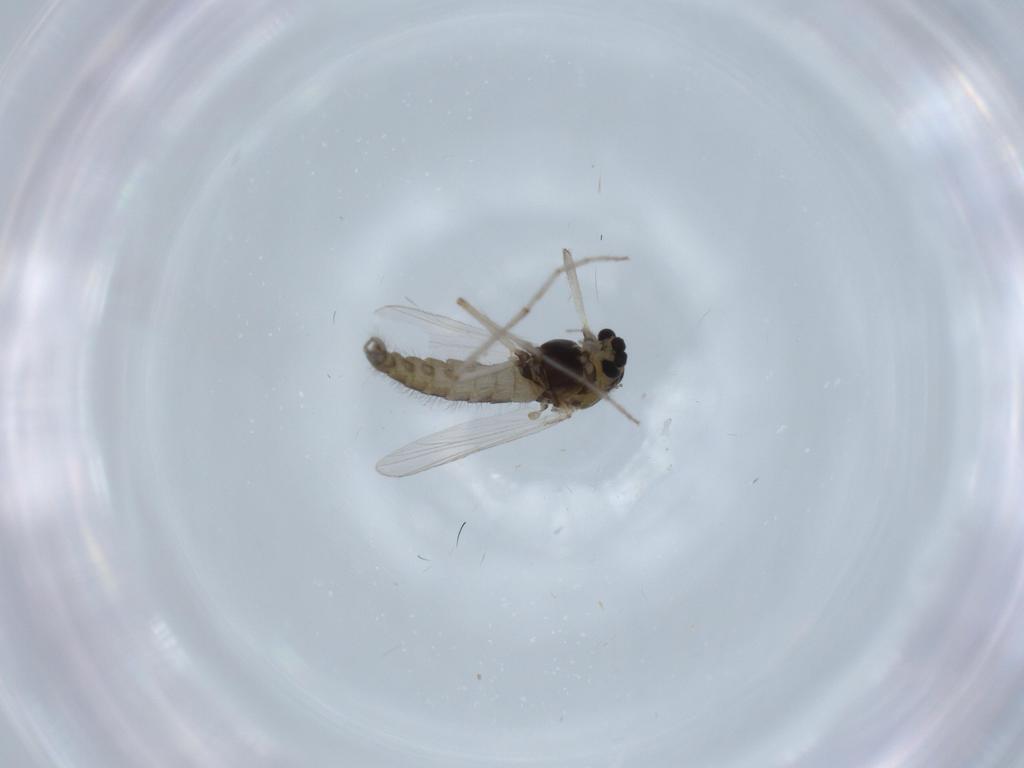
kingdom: Animalia
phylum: Arthropoda
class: Insecta
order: Diptera
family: Chironomidae
